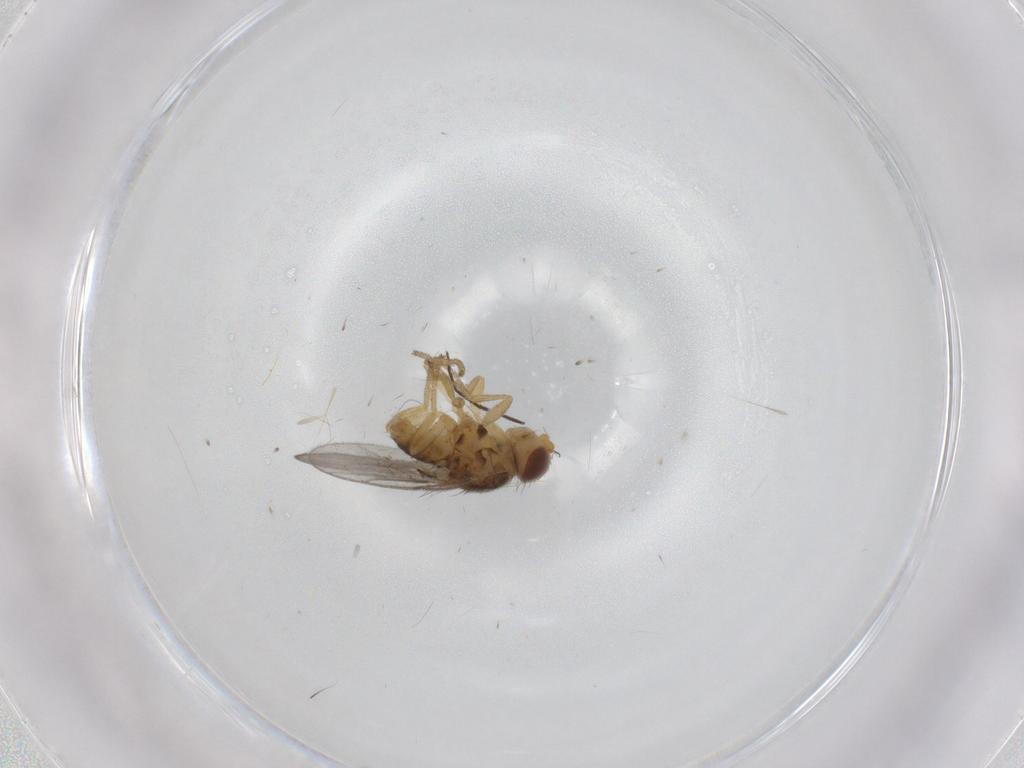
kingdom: Animalia
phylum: Arthropoda
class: Insecta
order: Diptera
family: Chloropidae
